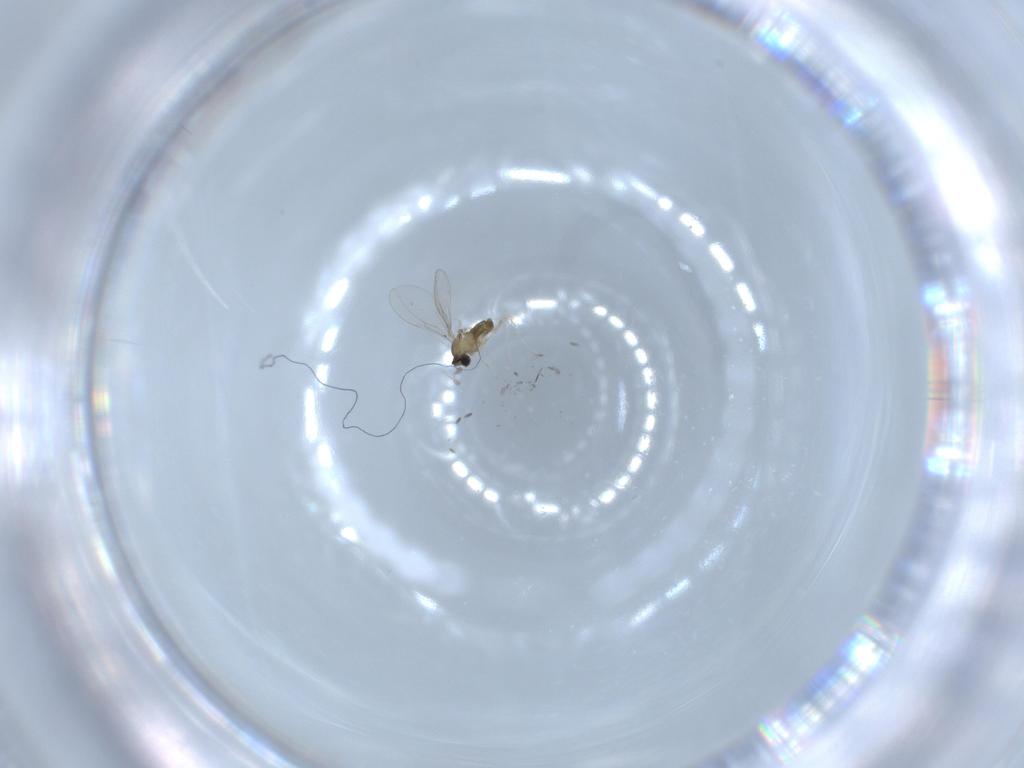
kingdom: Animalia
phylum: Arthropoda
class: Insecta
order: Diptera
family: Cecidomyiidae
